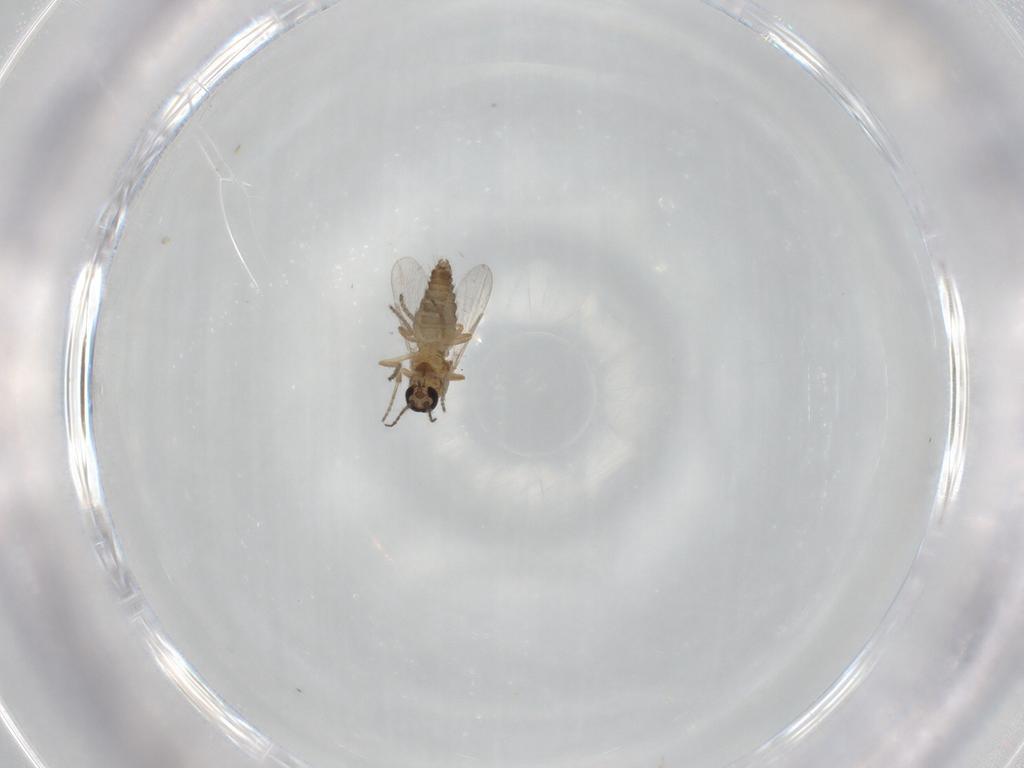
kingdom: Animalia
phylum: Arthropoda
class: Insecta
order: Diptera
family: Ceratopogonidae
